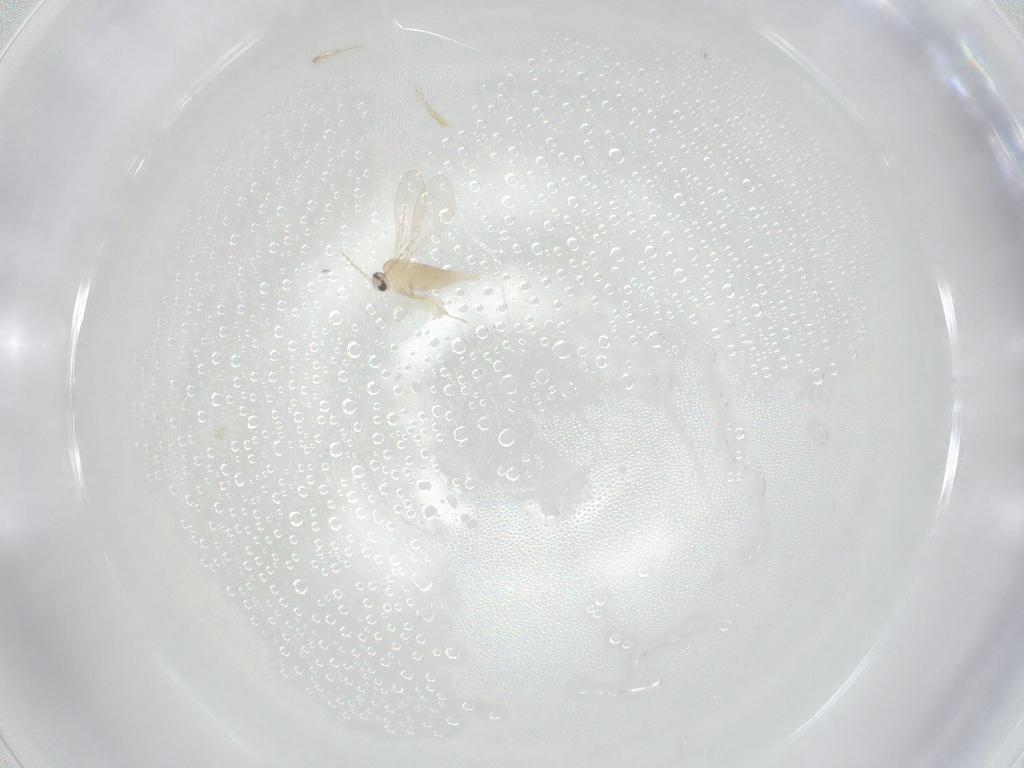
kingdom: Animalia
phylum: Arthropoda
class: Insecta
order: Diptera
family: Cecidomyiidae
